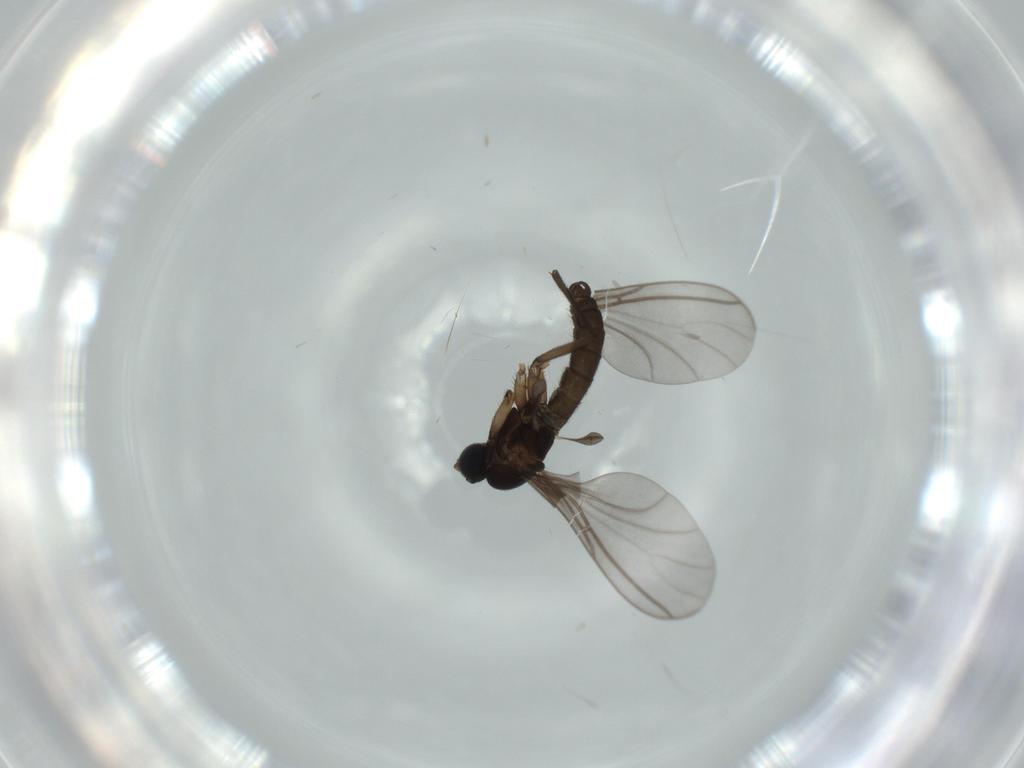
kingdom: Animalia
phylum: Arthropoda
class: Insecta
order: Diptera
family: Sciaridae
